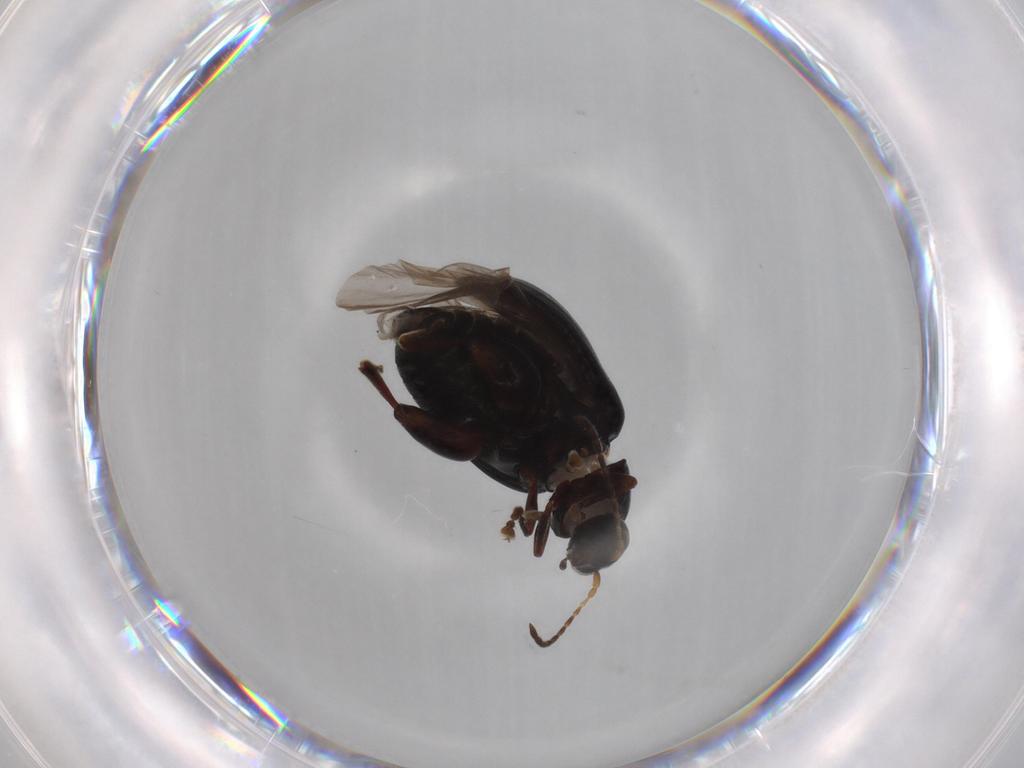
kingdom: Animalia
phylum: Arthropoda
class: Insecta
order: Coleoptera
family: Chrysomelidae
